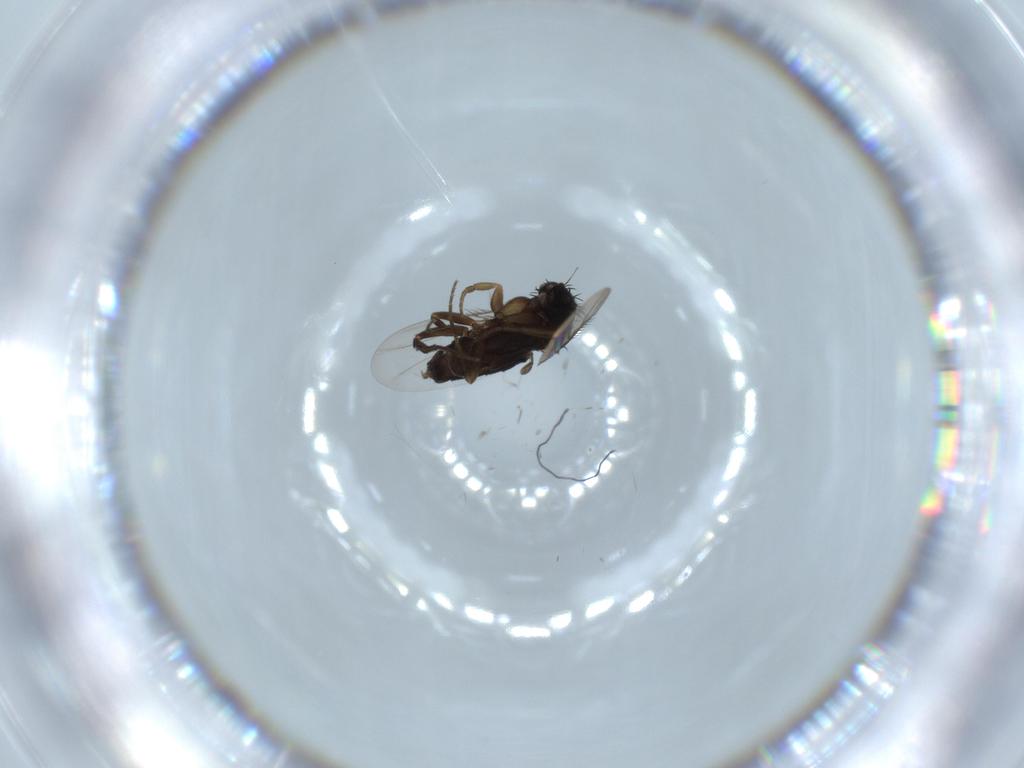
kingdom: Animalia
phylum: Arthropoda
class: Insecta
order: Diptera
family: Phoridae
